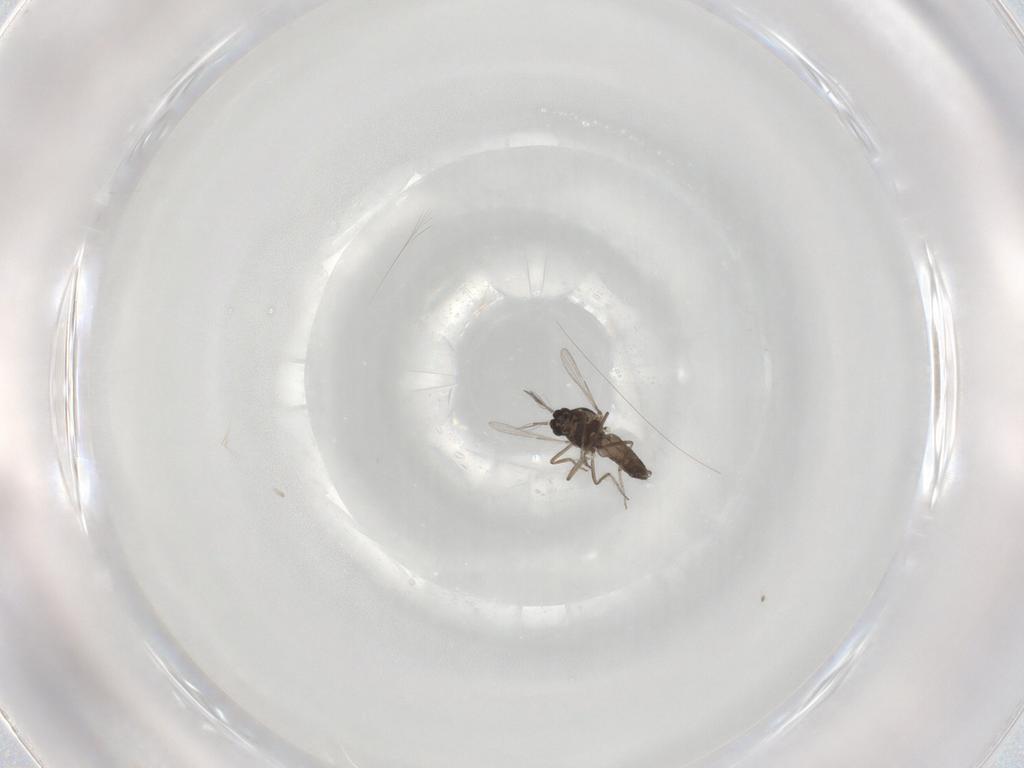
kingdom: Animalia
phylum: Arthropoda
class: Insecta
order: Diptera
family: Ceratopogonidae
